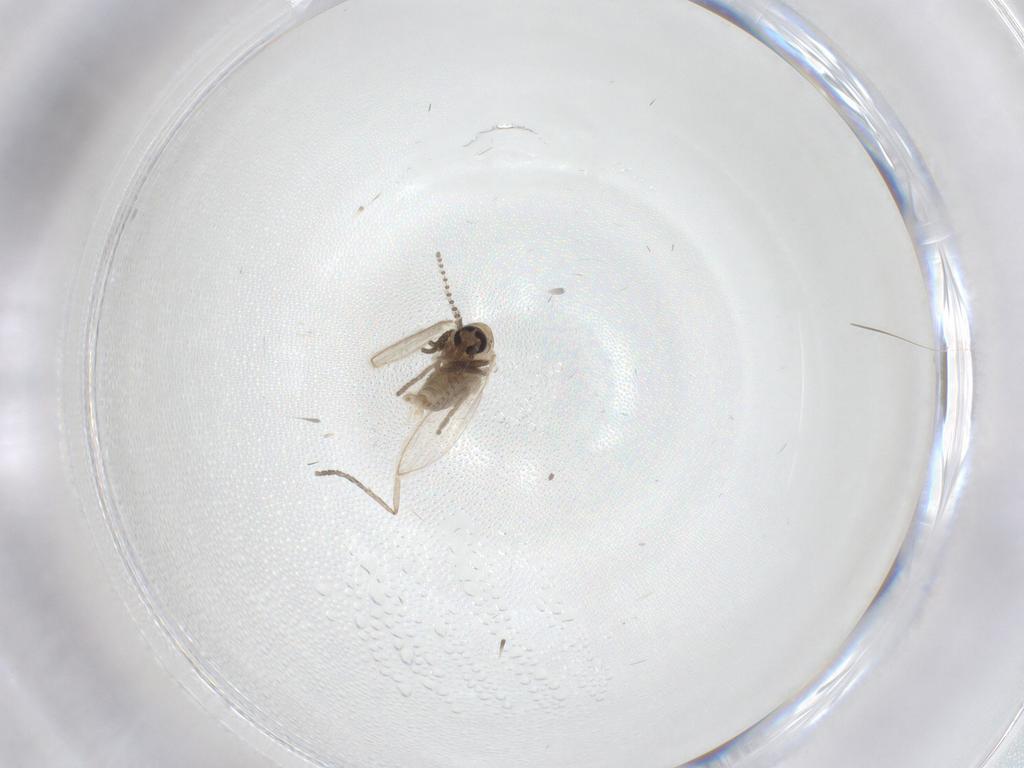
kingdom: Animalia
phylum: Arthropoda
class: Insecta
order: Diptera
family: Psychodidae
